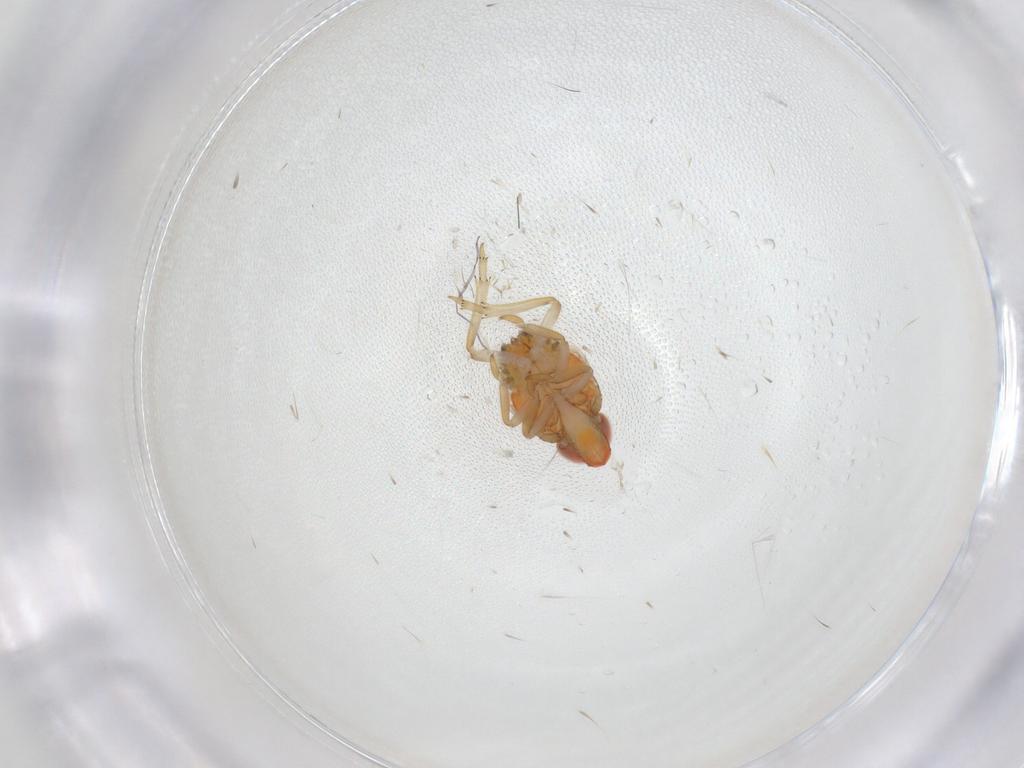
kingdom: Animalia
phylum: Arthropoda
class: Insecta
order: Hemiptera
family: Fulgoroidea_incertae_sedis
